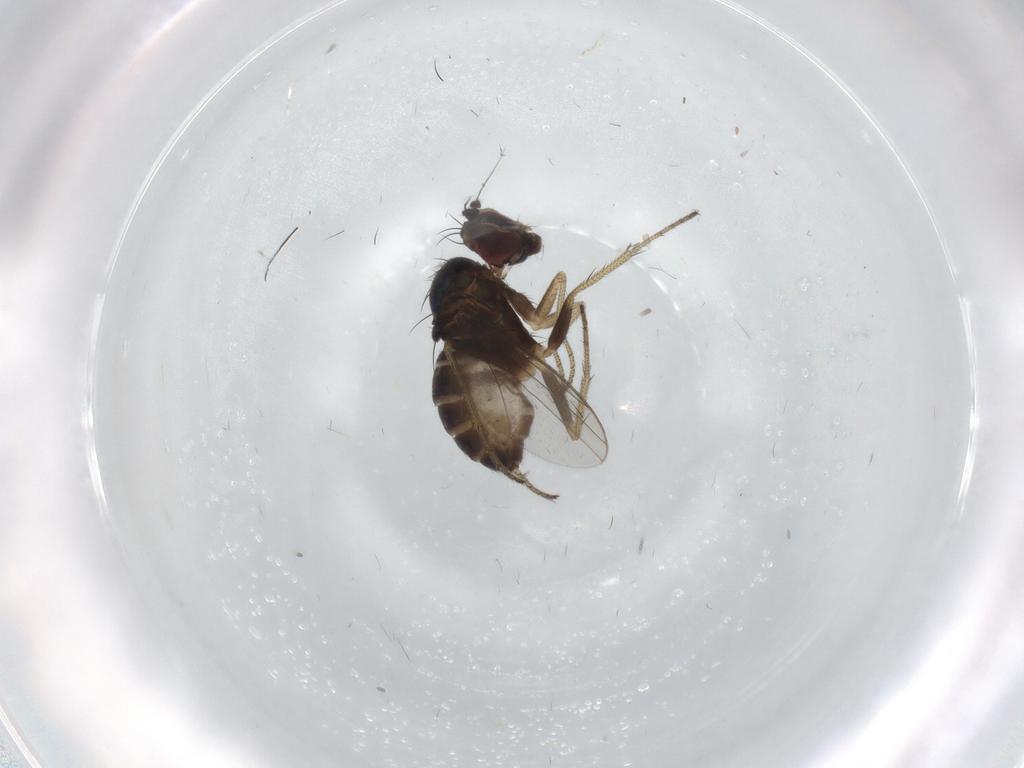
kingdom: Animalia
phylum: Arthropoda
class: Insecta
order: Diptera
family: Dolichopodidae
